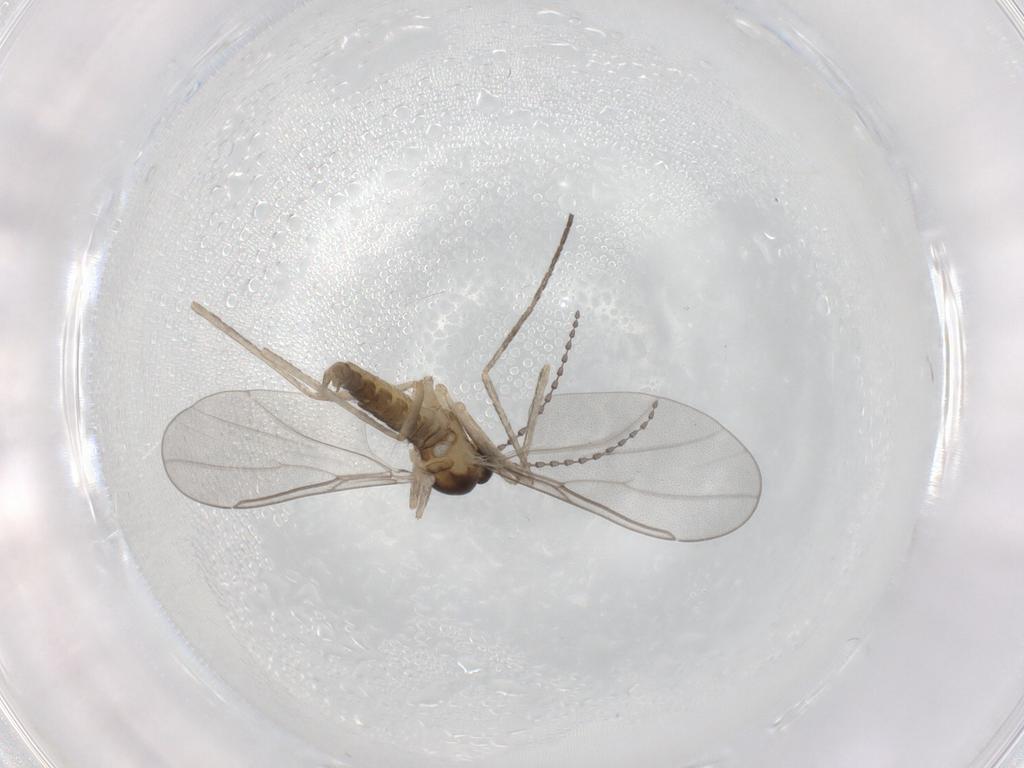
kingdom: Animalia
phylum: Arthropoda
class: Insecta
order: Diptera
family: Cecidomyiidae
